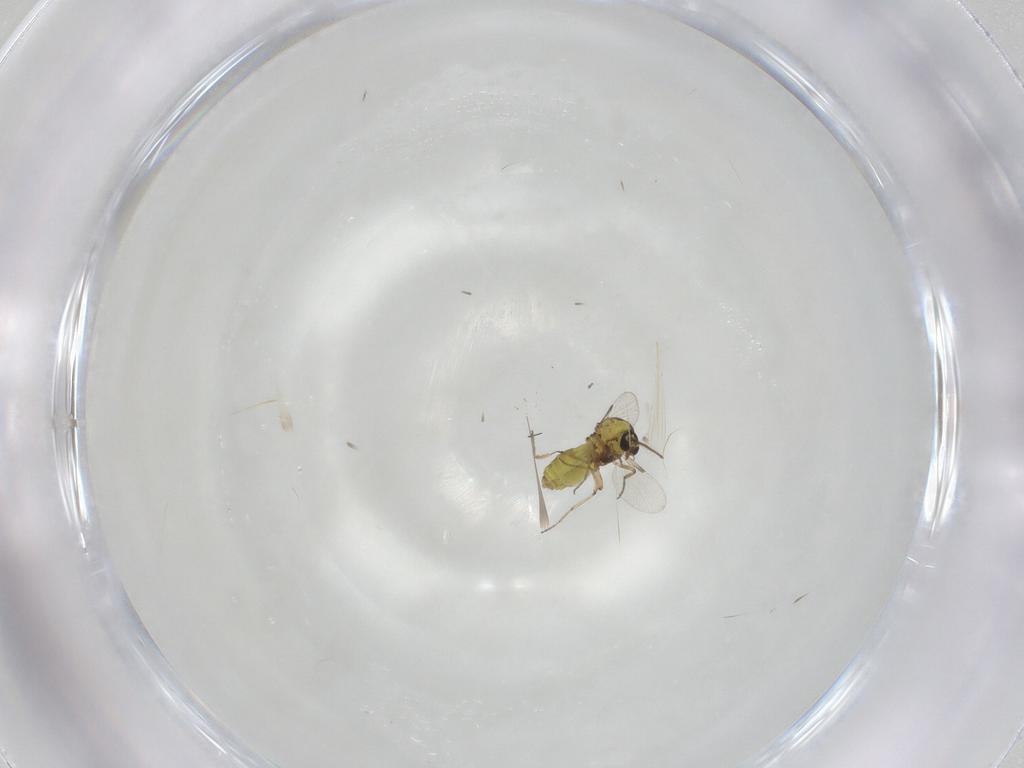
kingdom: Animalia
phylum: Arthropoda
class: Insecta
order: Diptera
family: Ceratopogonidae
